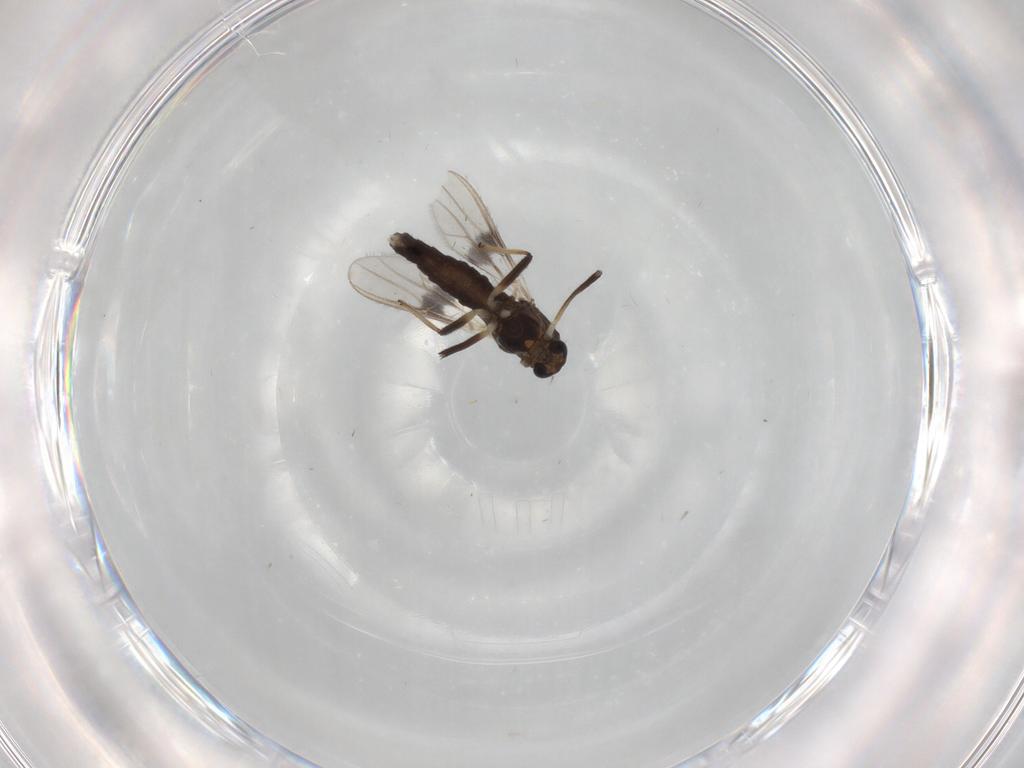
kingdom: Animalia
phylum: Arthropoda
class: Insecta
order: Diptera
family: Chironomidae
